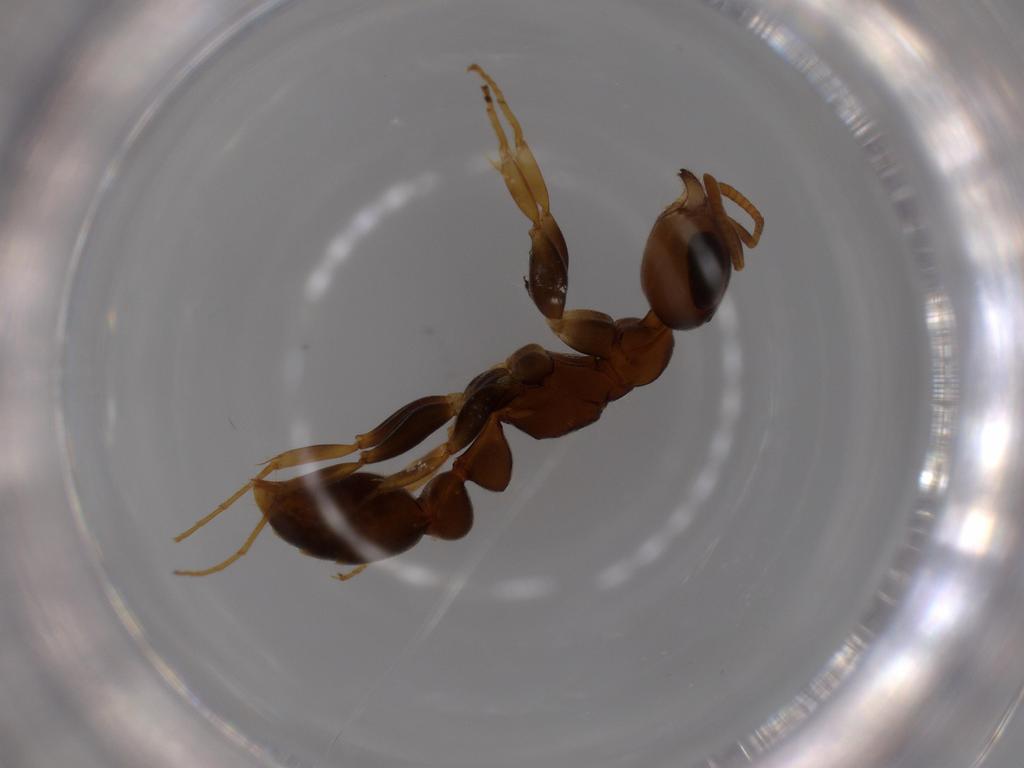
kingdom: Animalia
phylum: Arthropoda
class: Insecta
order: Hymenoptera
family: Formicidae
